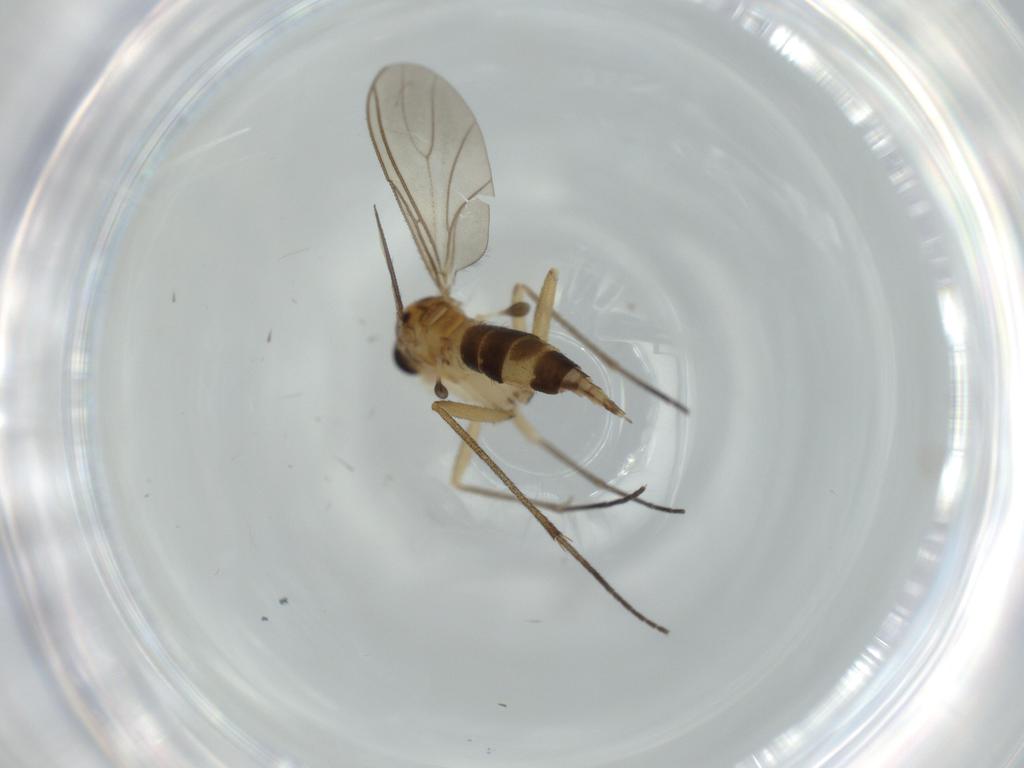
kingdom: Animalia
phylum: Arthropoda
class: Insecta
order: Diptera
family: Cecidomyiidae
